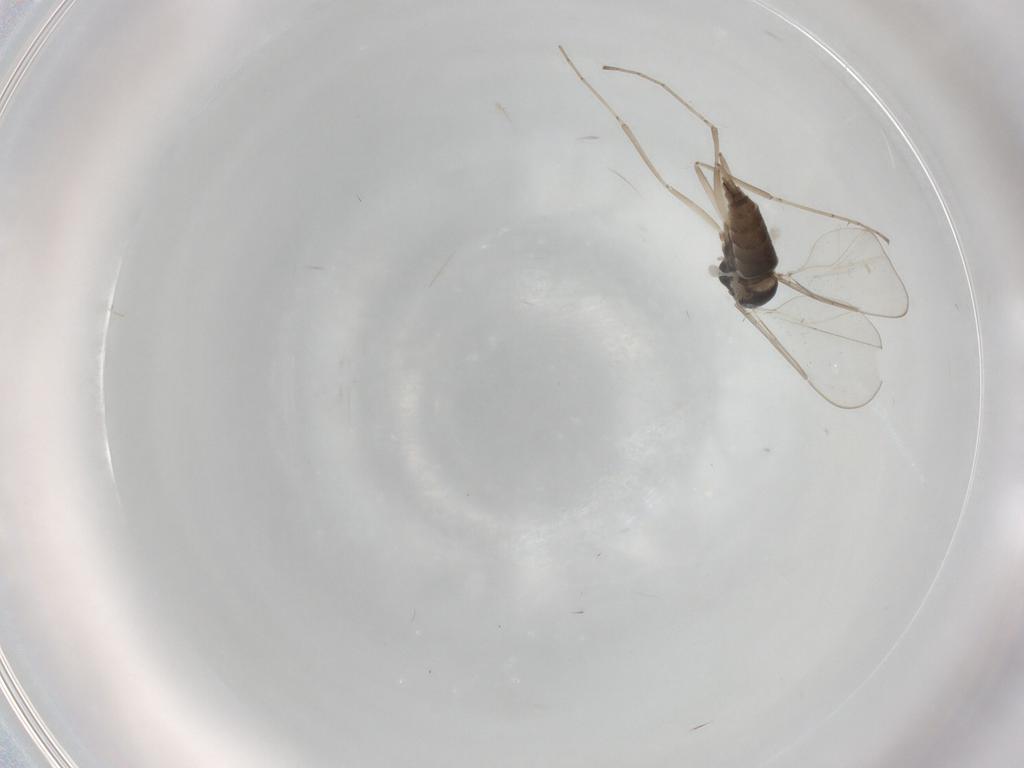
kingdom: Animalia
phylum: Arthropoda
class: Insecta
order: Diptera
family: Cecidomyiidae
